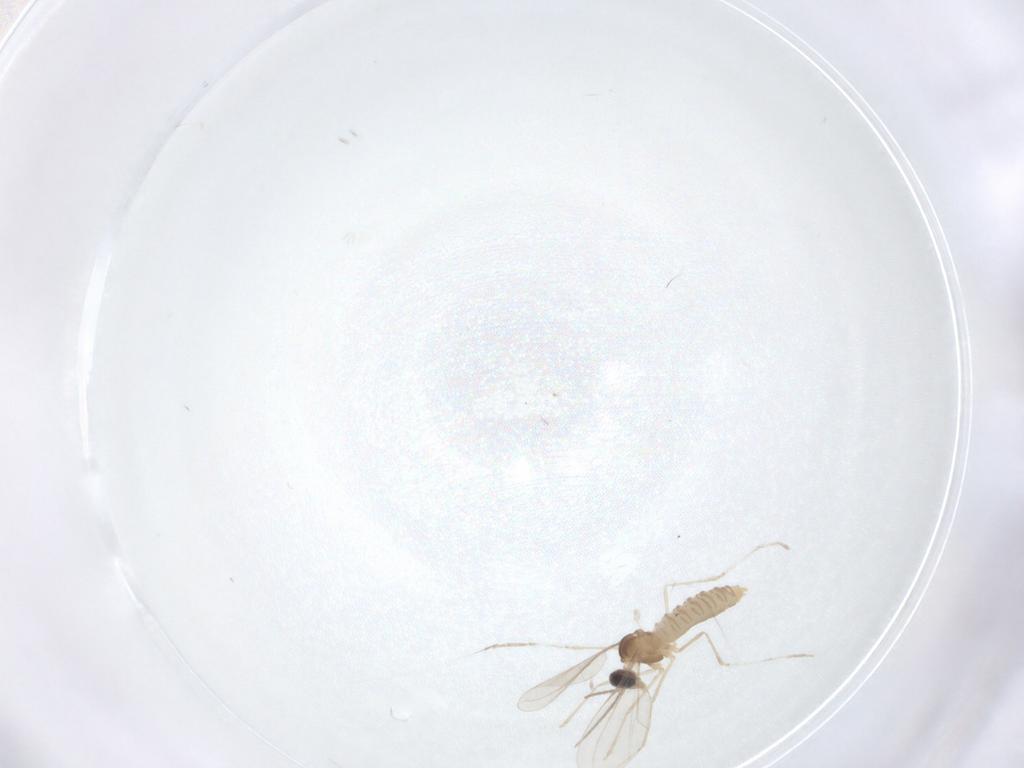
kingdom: Animalia
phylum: Arthropoda
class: Insecta
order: Diptera
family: Cecidomyiidae
